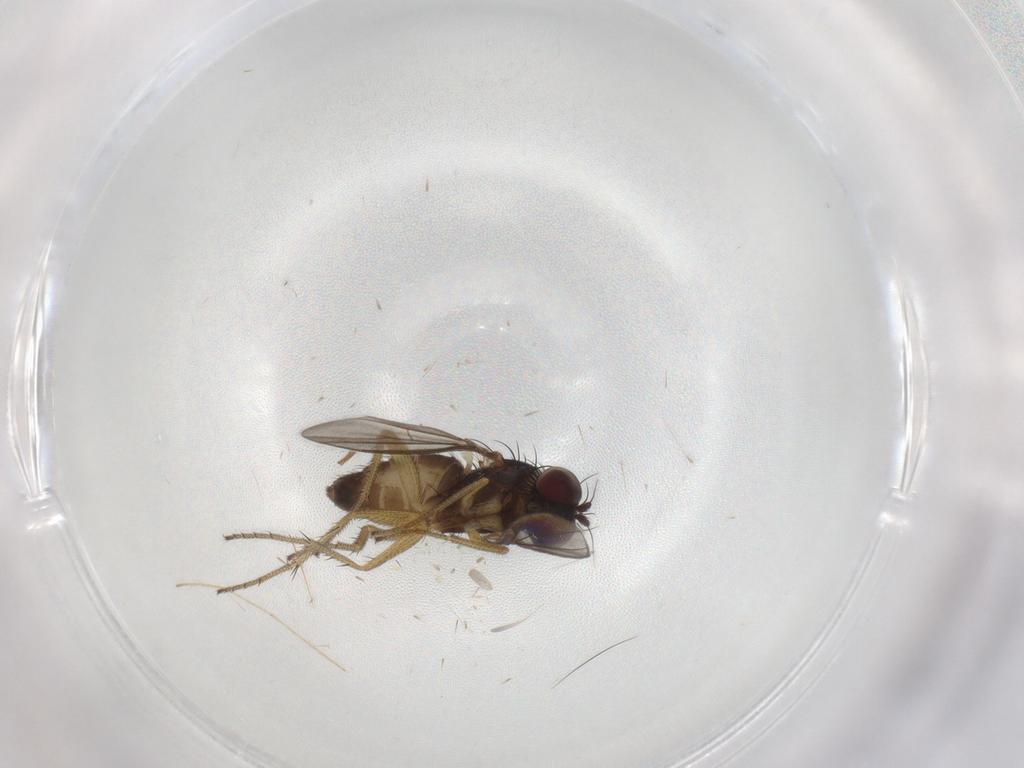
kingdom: Animalia
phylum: Arthropoda
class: Insecta
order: Diptera
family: Dolichopodidae
